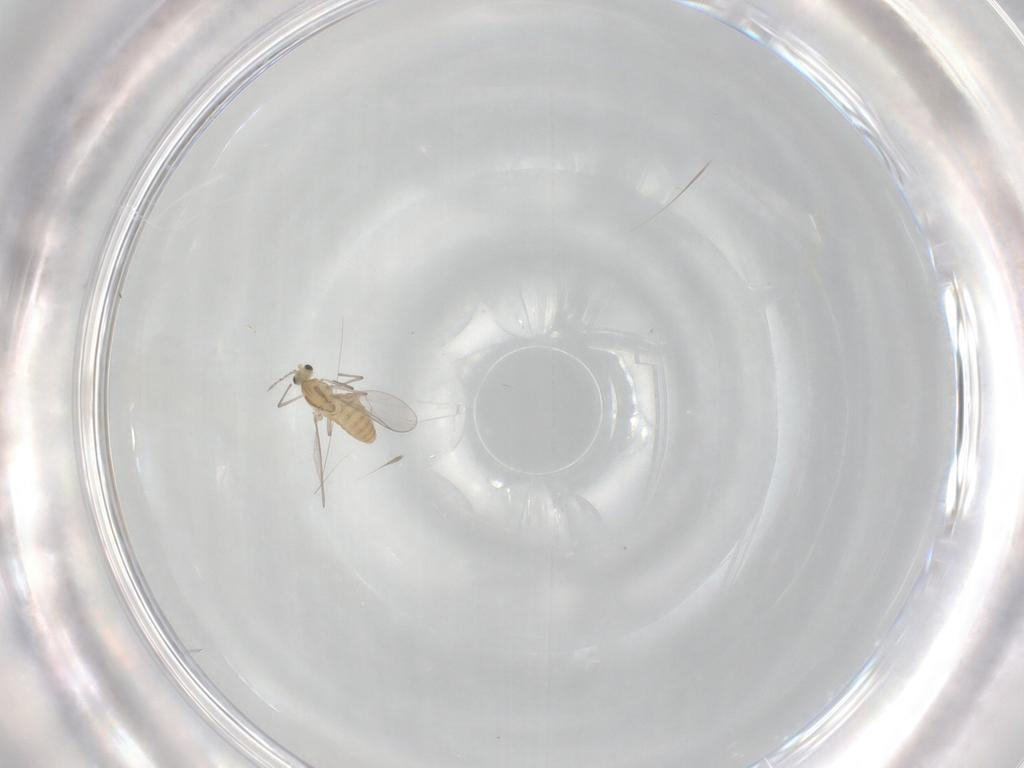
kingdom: Animalia
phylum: Arthropoda
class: Insecta
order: Diptera
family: Chironomidae
